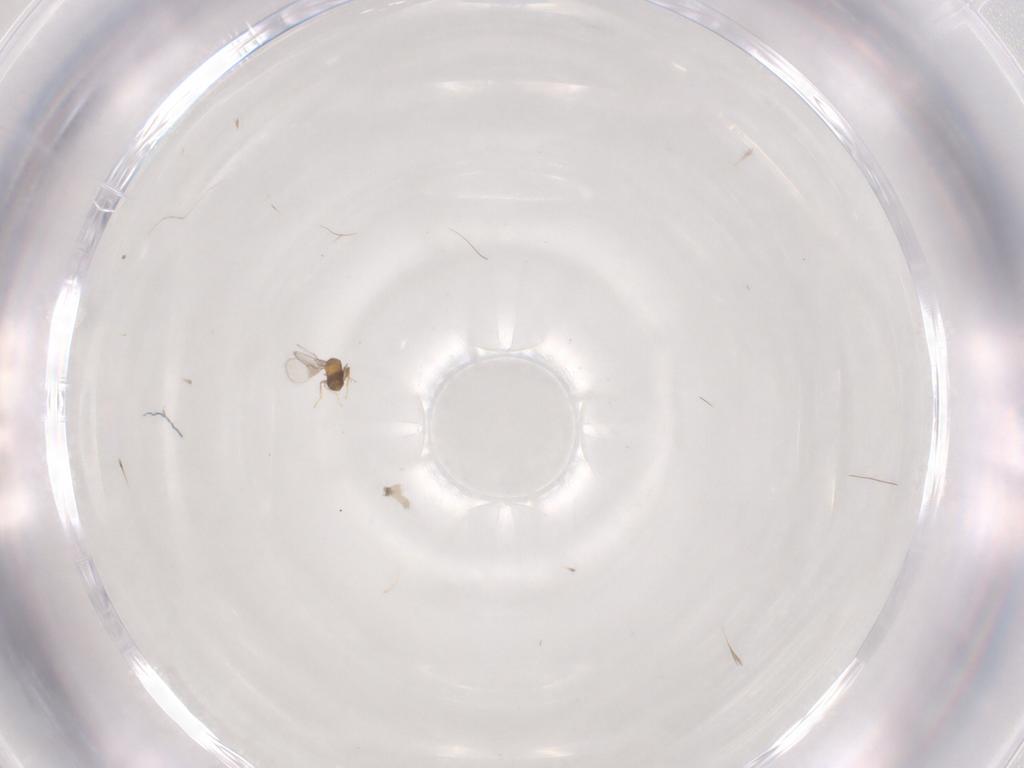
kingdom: Animalia
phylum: Arthropoda
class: Insecta
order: Hymenoptera
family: Trichogrammatidae
